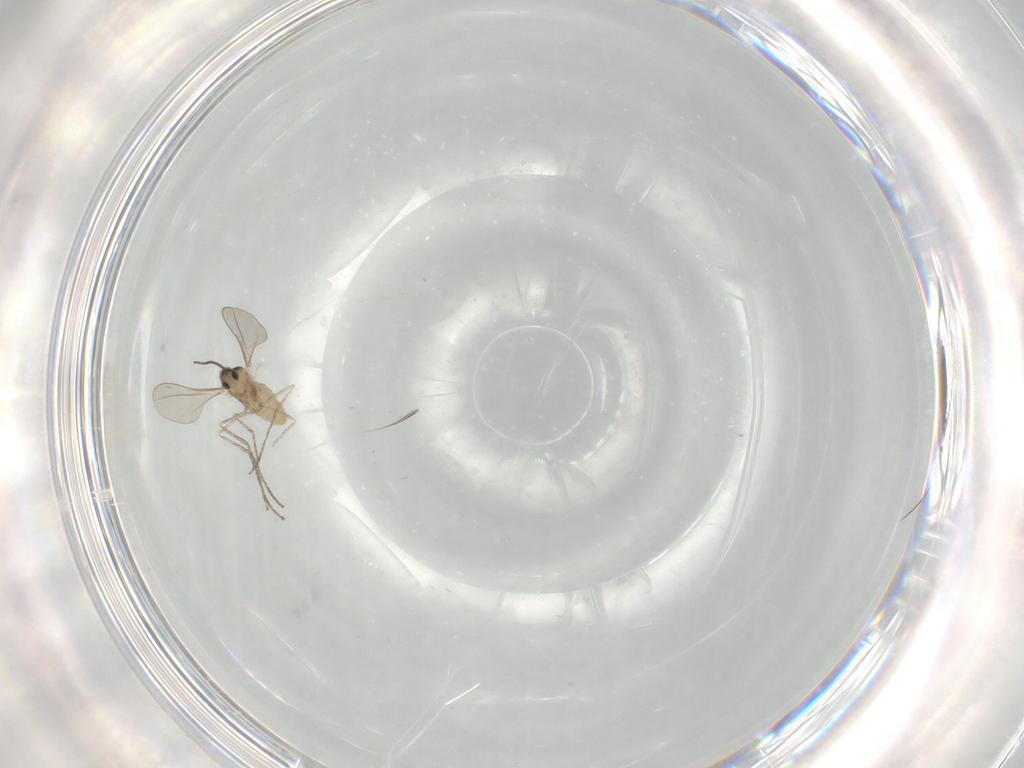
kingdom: Animalia
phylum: Arthropoda
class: Insecta
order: Diptera
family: Cecidomyiidae
